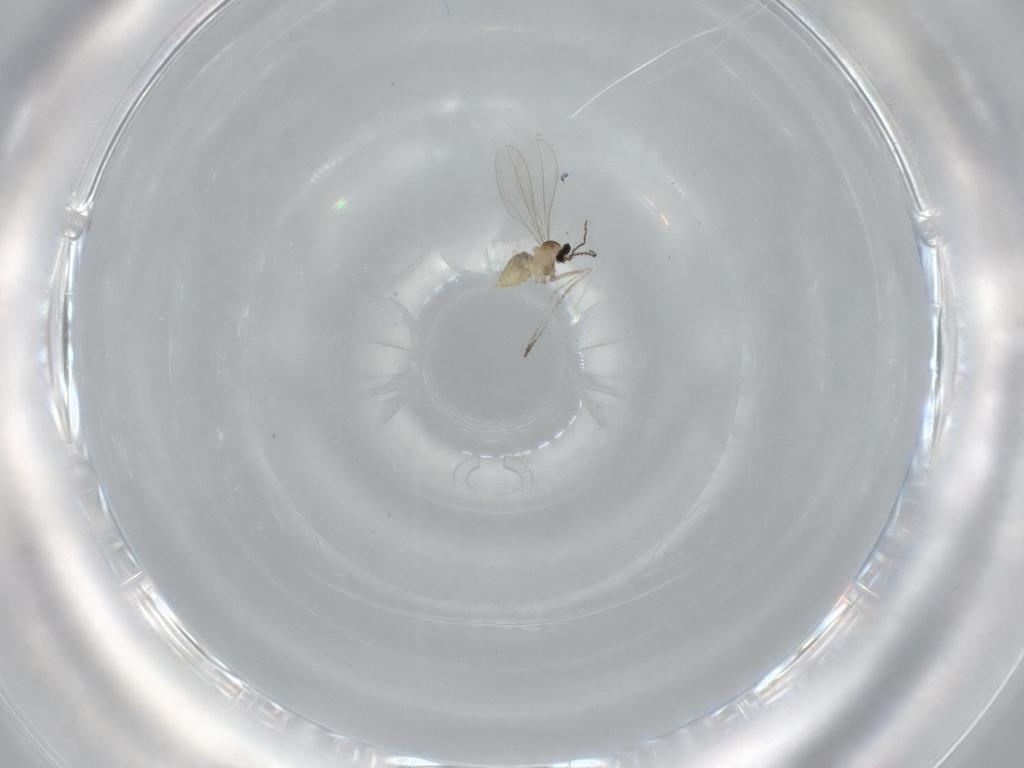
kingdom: Animalia
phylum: Arthropoda
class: Insecta
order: Diptera
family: Cecidomyiidae
